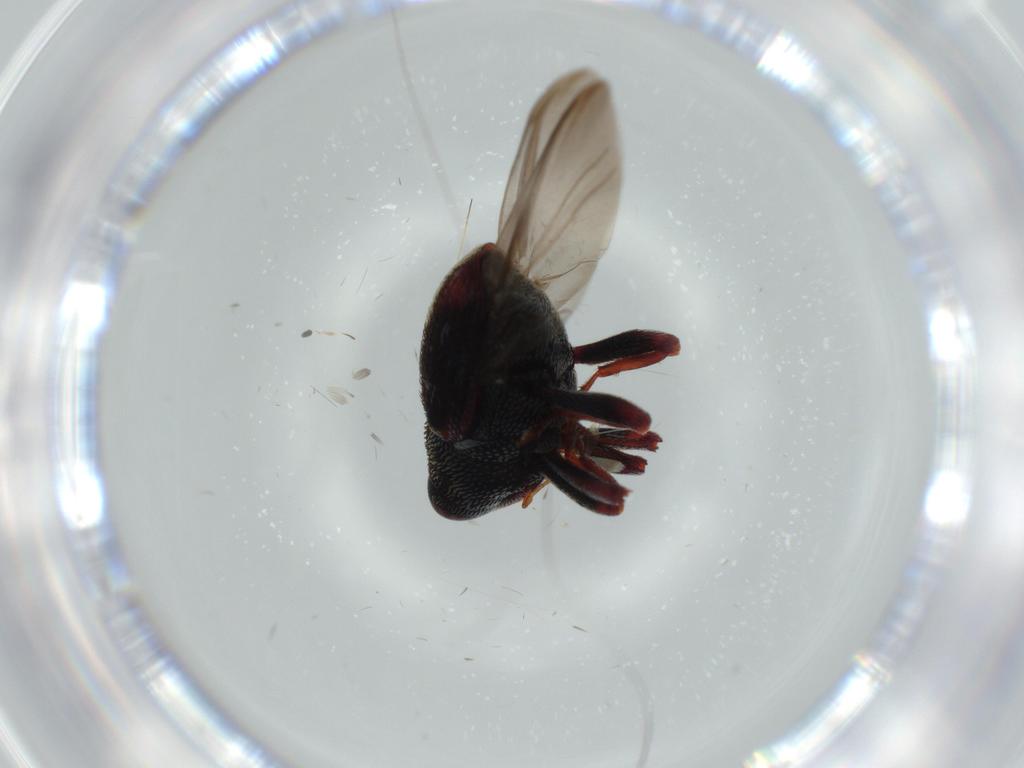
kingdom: Animalia
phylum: Arthropoda
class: Insecta
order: Coleoptera
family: Curculionidae
